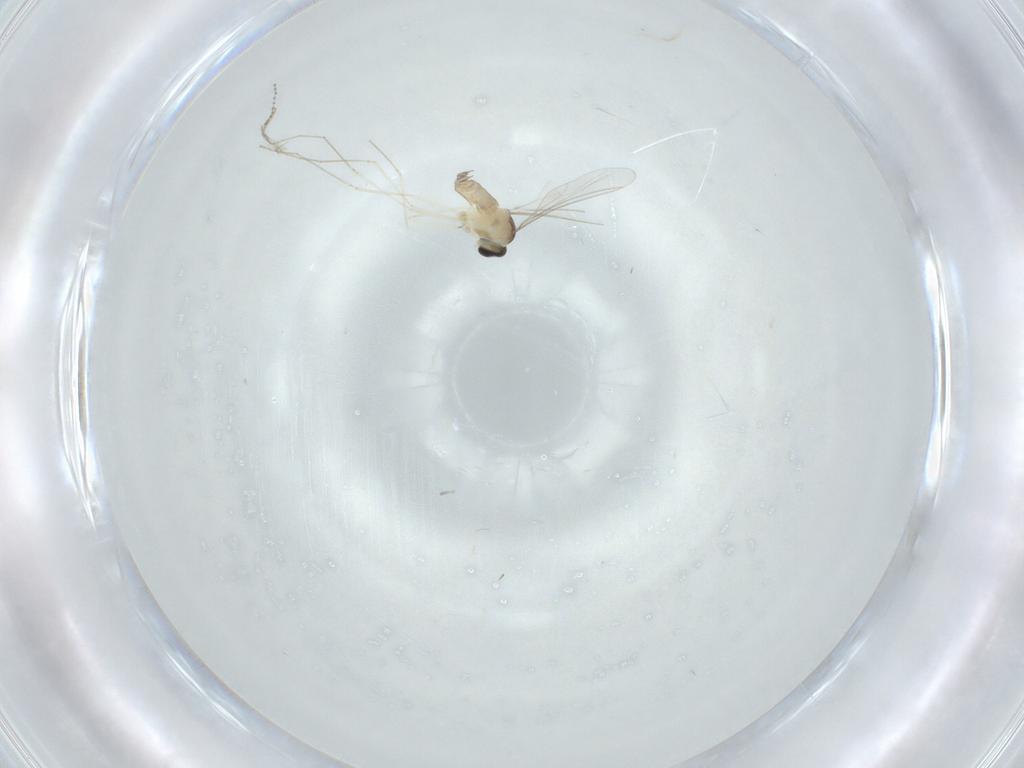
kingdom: Animalia
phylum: Arthropoda
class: Insecta
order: Diptera
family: Cecidomyiidae
